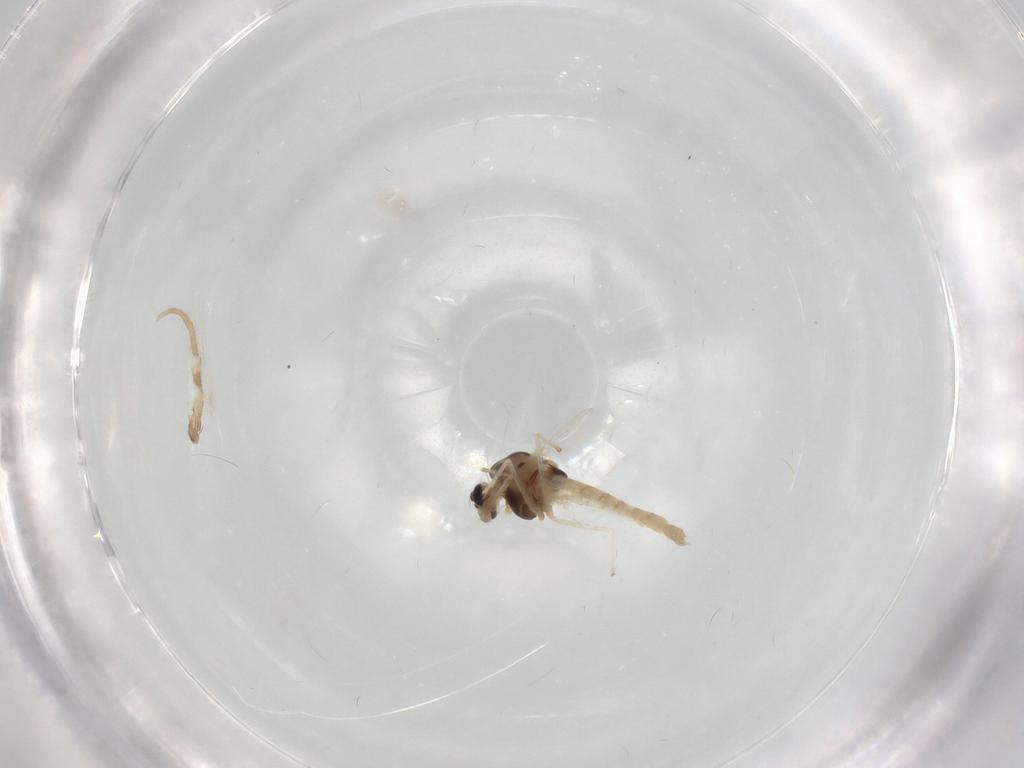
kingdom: Animalia
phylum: Arthropoda
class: Insecta
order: Diptera
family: Chironomidae
